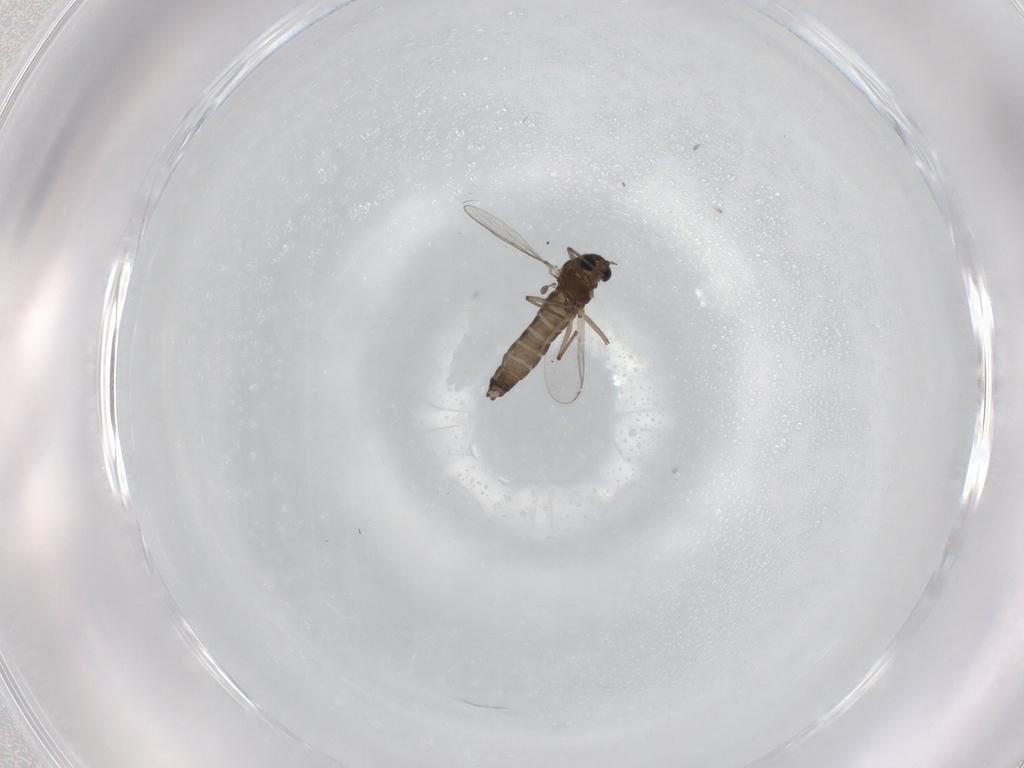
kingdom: Animalia
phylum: Arthropoda
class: Insecta
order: Diptera
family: Chironomidae
